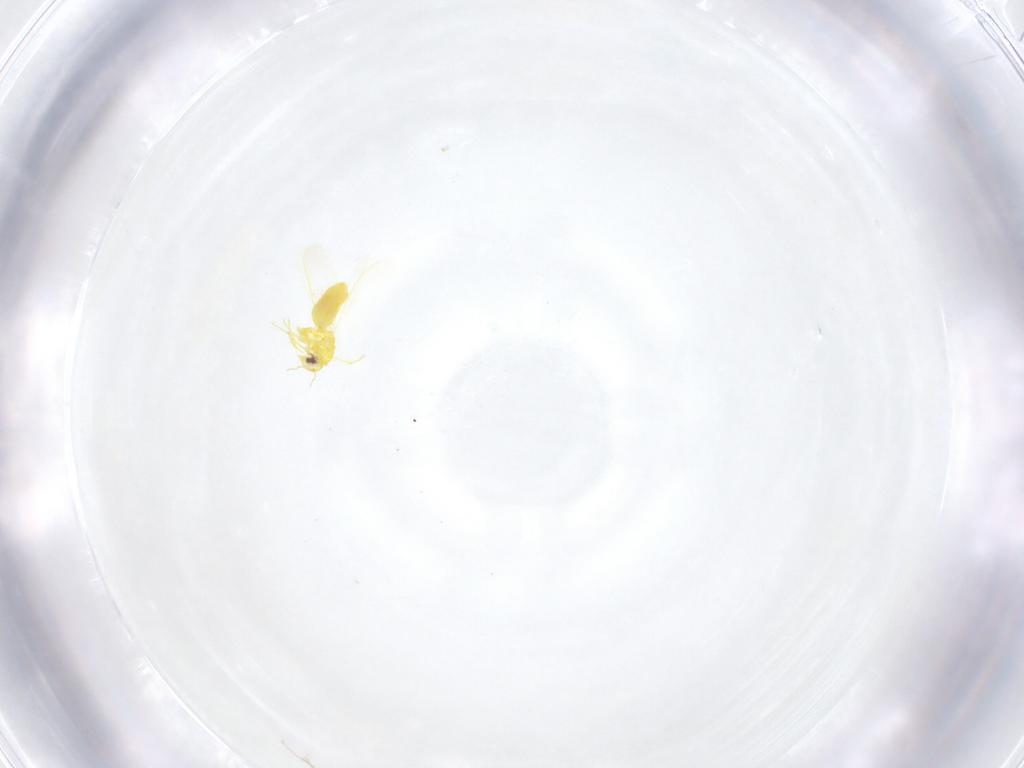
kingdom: Animalia
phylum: Arthropoda
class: Insecta
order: Hemiptera
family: Aleyrodidae
